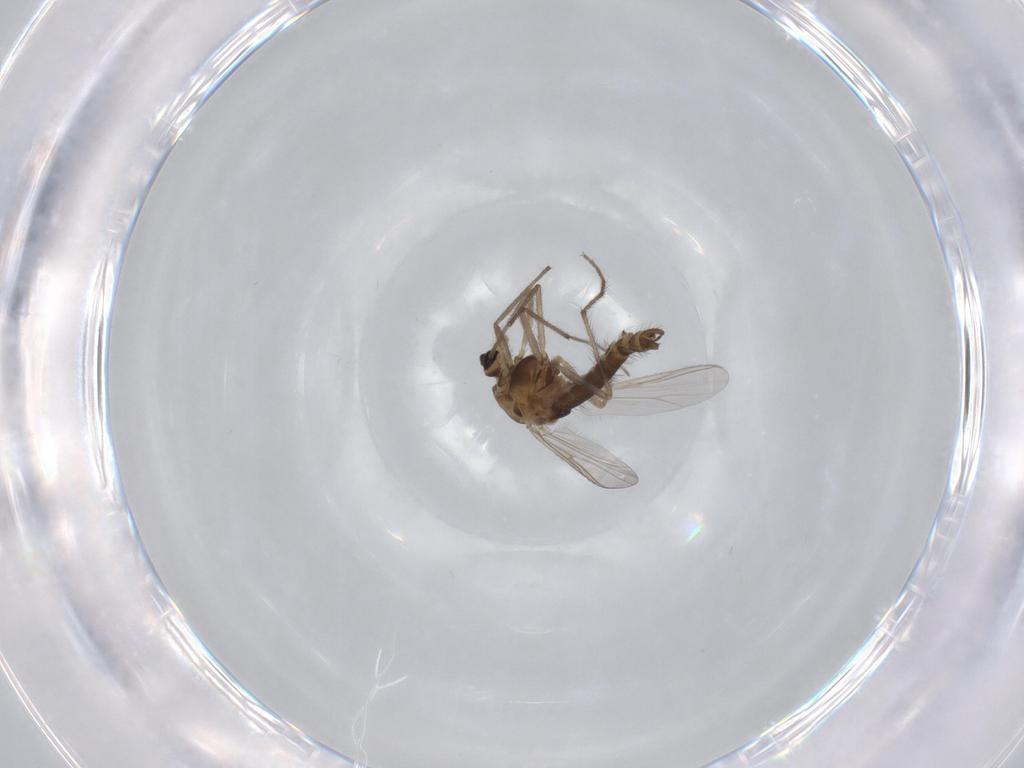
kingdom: Animalia
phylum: Arthropoda
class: Insecta
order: Diptera
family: Chironomidae
